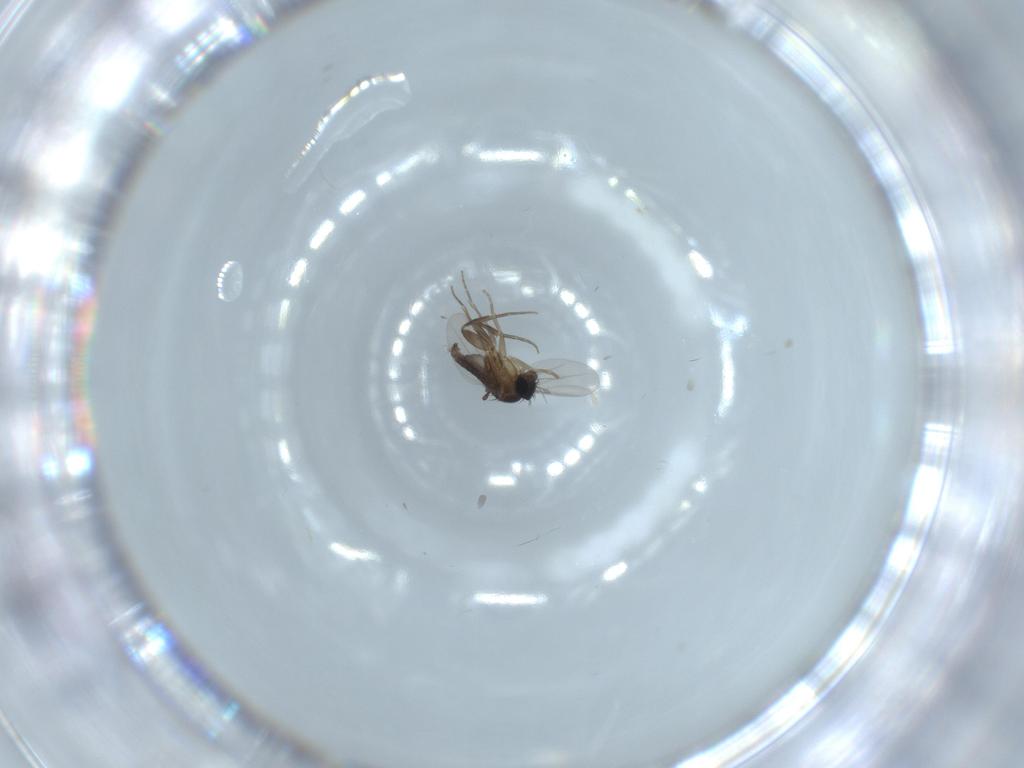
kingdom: Animalia
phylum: Arthropoda
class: Insecta
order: Diptera
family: Phoridae
